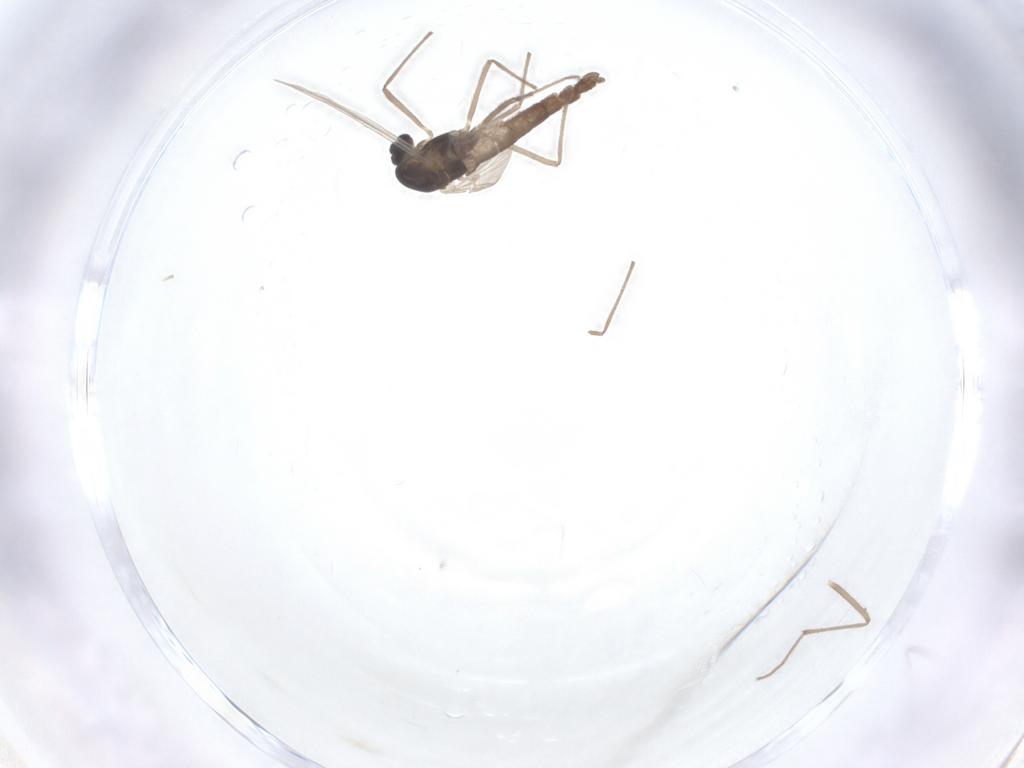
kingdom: Animalia
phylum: Arthropoda
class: Insecta
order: Diptera
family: Chironomidae
